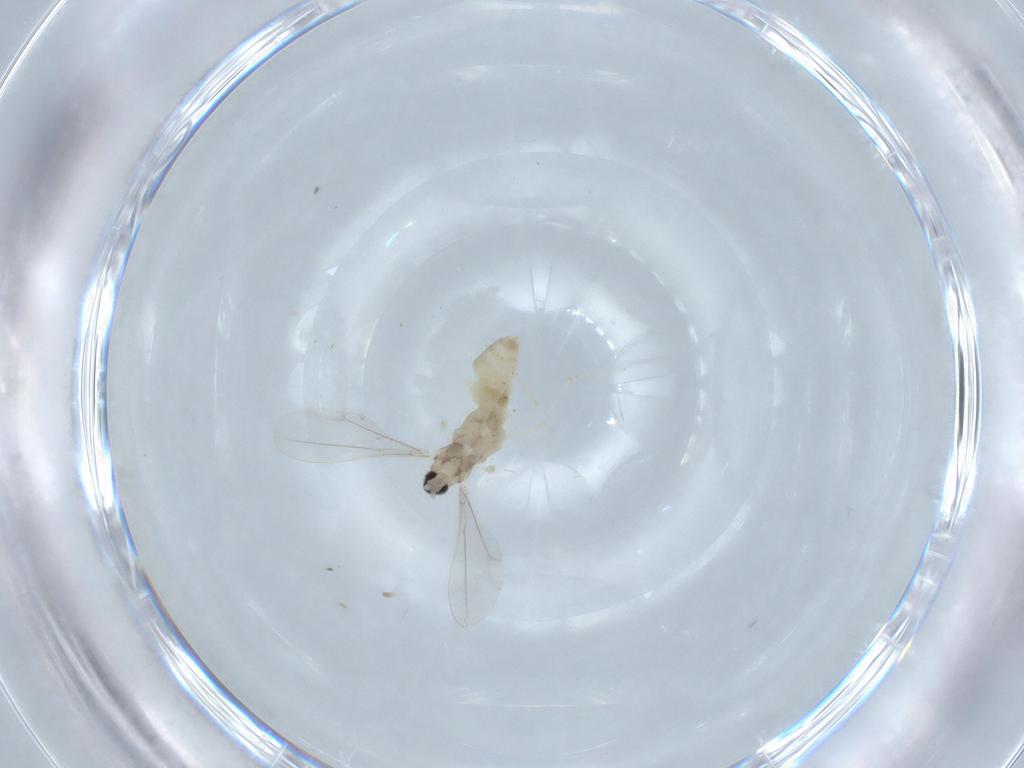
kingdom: Animalia
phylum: Arthropoda
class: Insecta
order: Diptera
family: Cecidomyiidae
